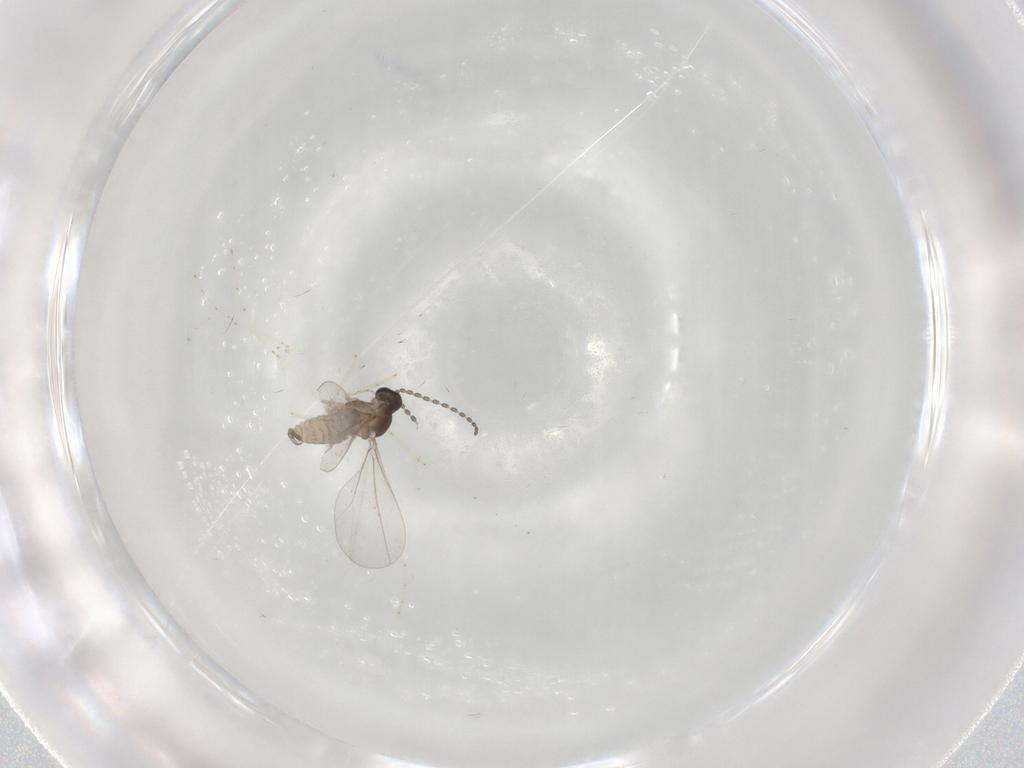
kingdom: Animalia
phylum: Arthropoda
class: Insecta
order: Diptera
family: Cecidomyiidae
